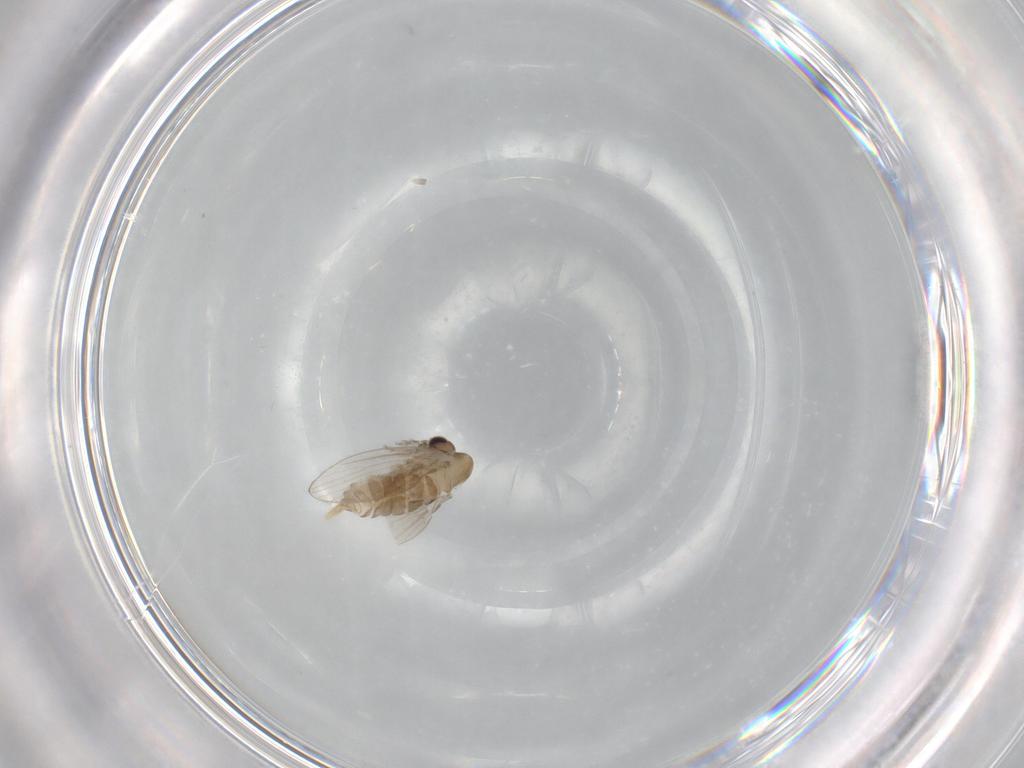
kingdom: Animalia
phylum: Arthropoda
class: Insecta
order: Diptera
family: Psychodidae
